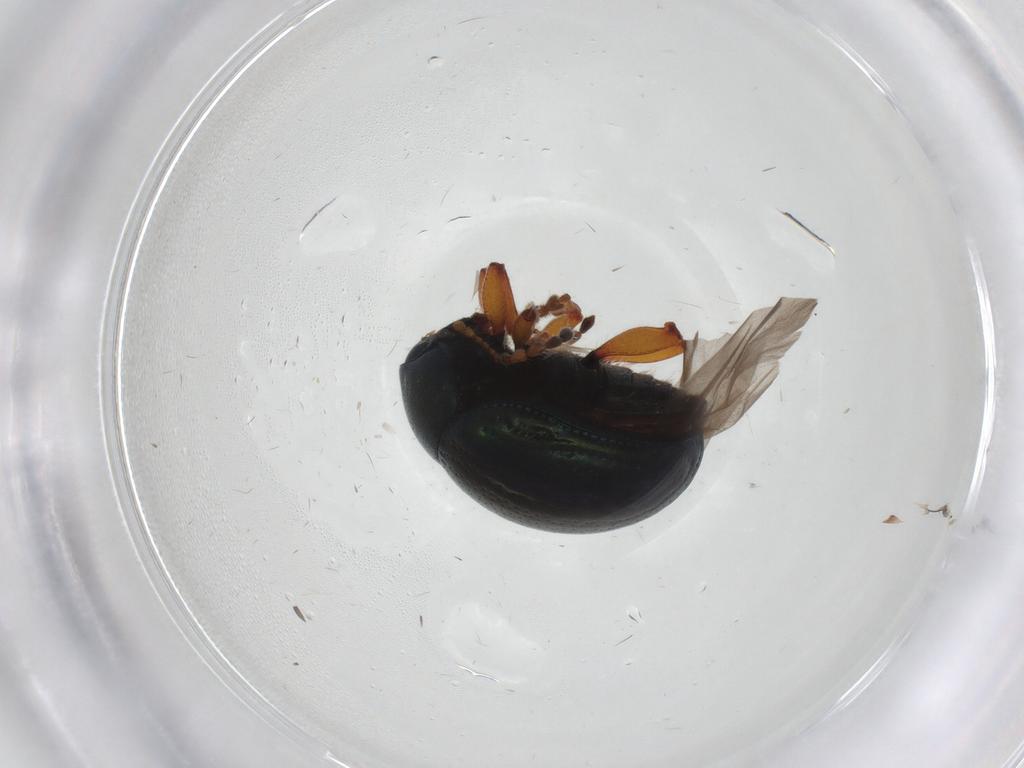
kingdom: Animalia
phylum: Arthropoda
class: Insecta
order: Coleoptera
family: Chrysomelidae
